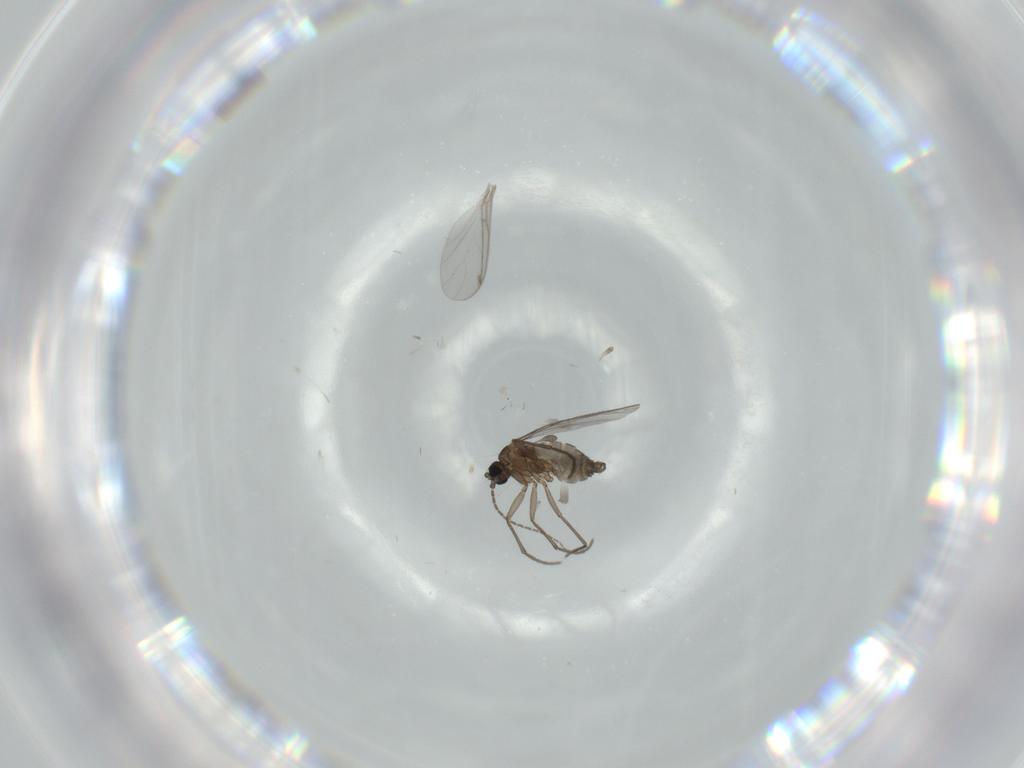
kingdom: Animalia
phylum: Arthropoda
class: Insecta
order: Diptera
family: Sciaridae
